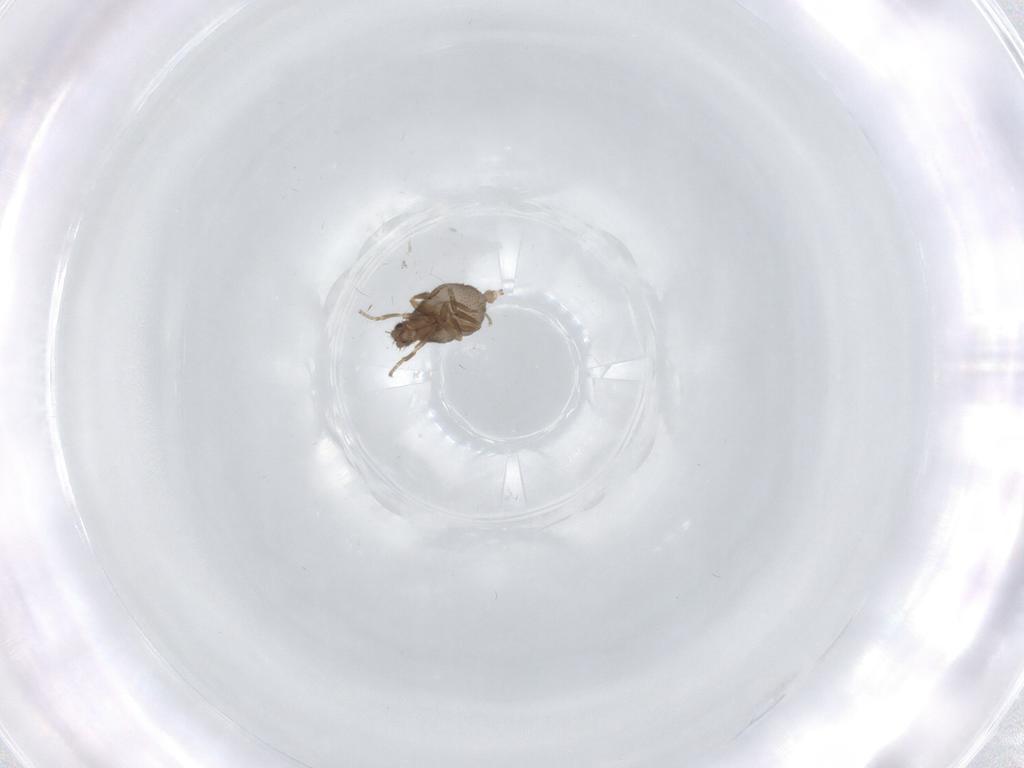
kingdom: Animalia
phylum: Arthropoda
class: Insecta
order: Diptera
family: Phoridae
